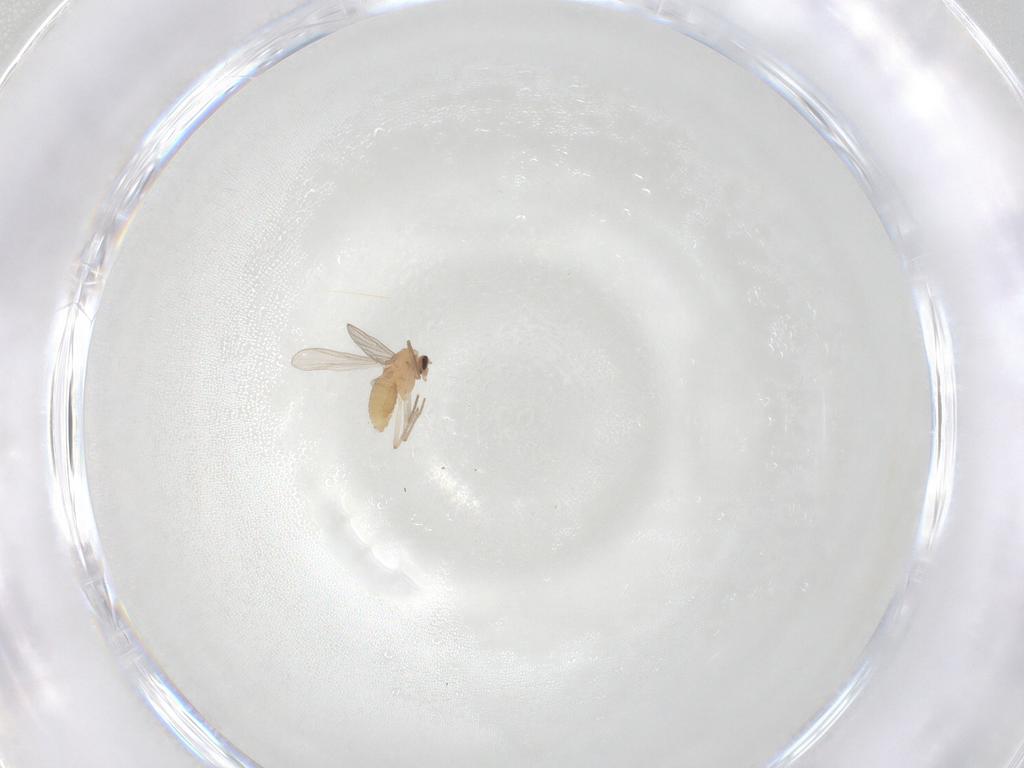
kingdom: Animalia
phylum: Arthropoda
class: Insecta
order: Diptera
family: Chironomidae
